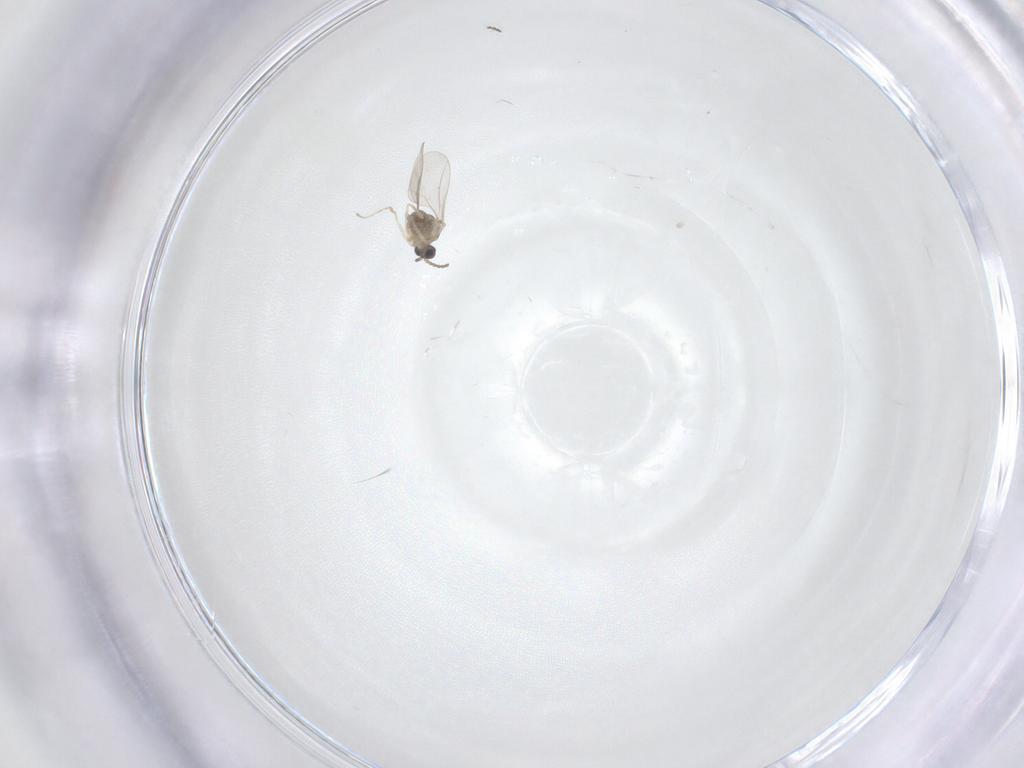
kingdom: Animalia
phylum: Arthropoda
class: Insecta
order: Diptera
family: Cecidomyiidae
